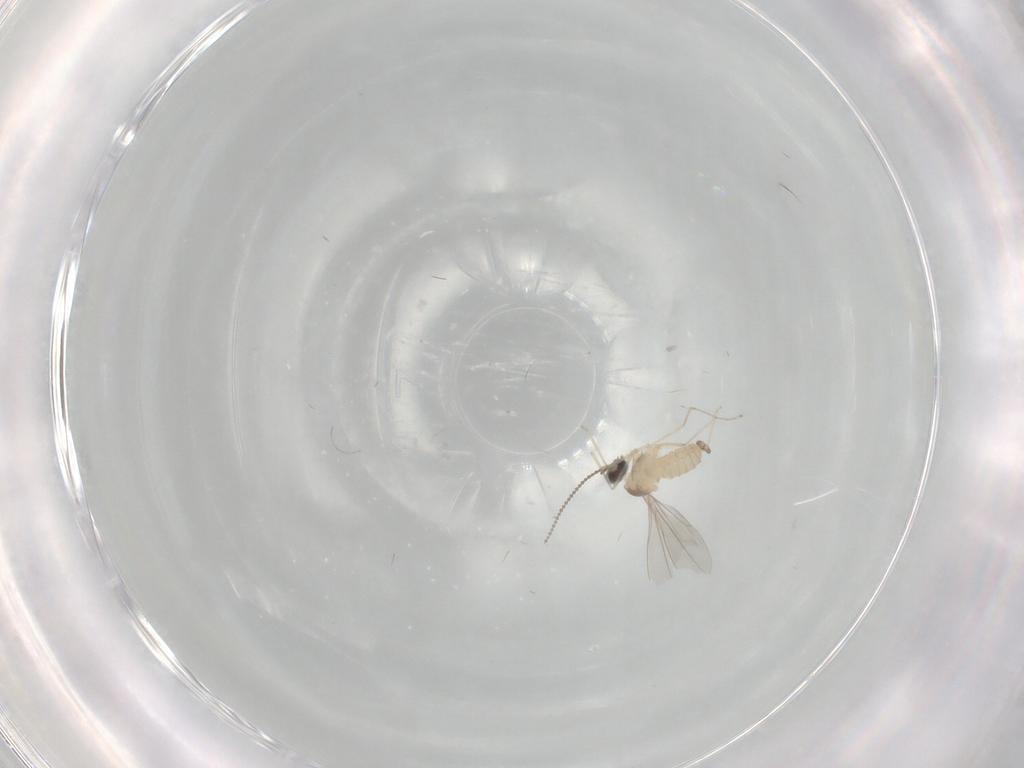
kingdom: Animalia
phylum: Arthropoda
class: Insecta
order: Diptera
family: Cecidomyiidae
